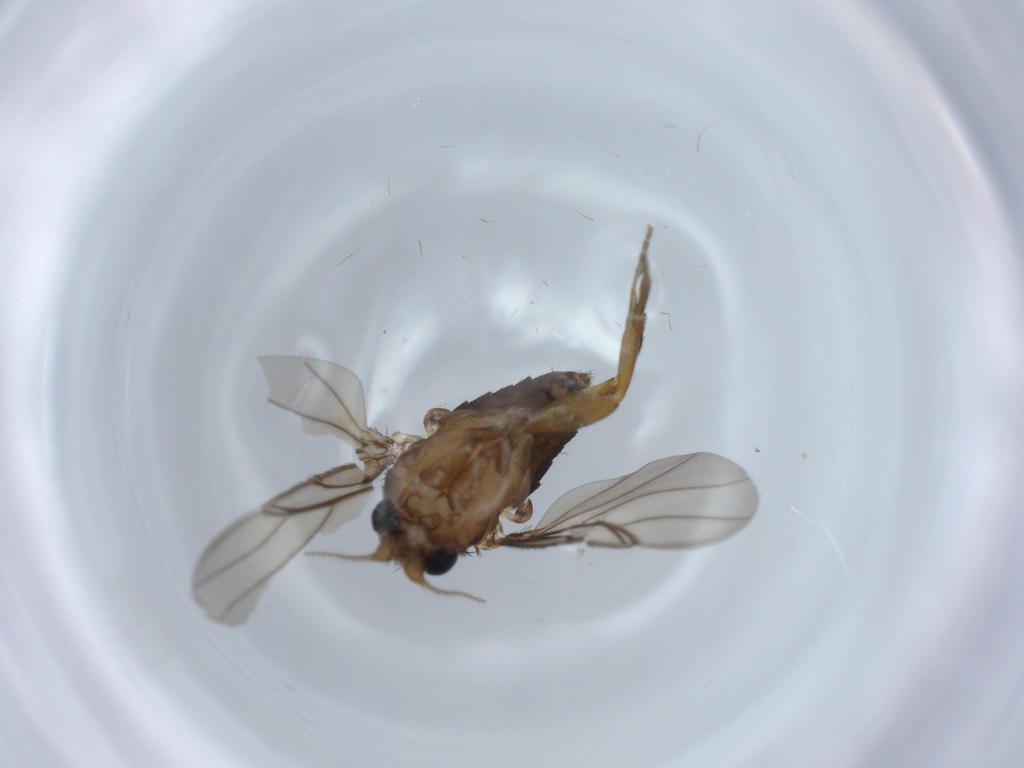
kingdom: Animalia
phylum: Arthropoda
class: Insecta
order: Diptera
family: Phoridae
